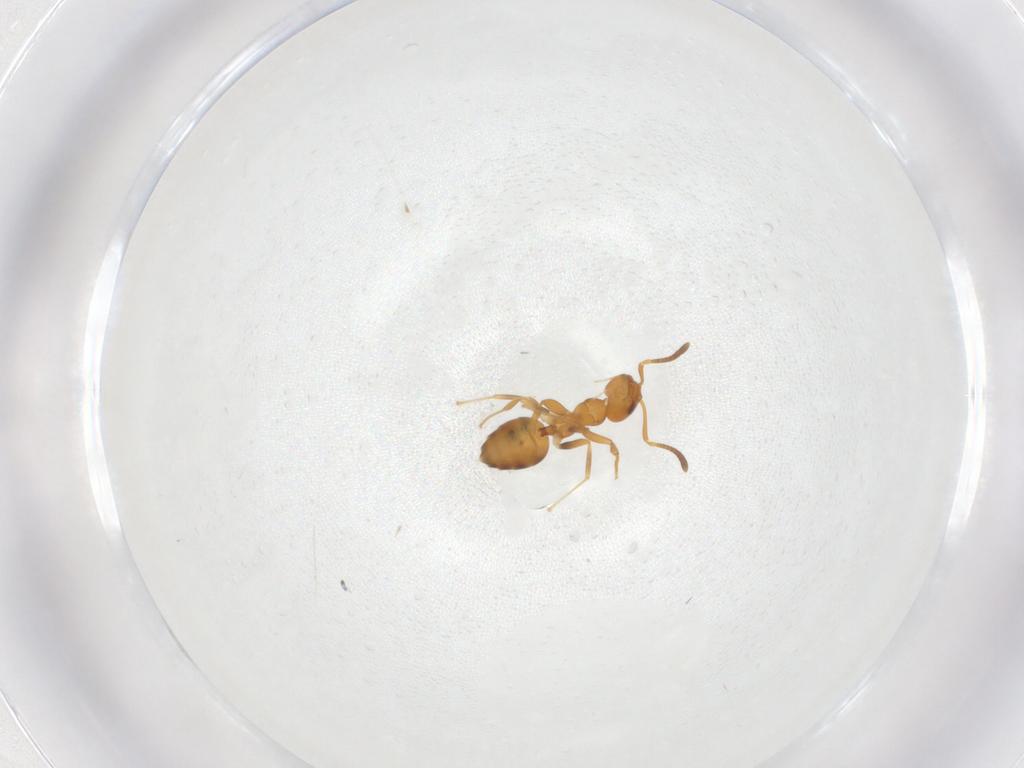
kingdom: Animalia
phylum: Arthropoda
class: Insecta
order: Hymenoptera
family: Formicidae
